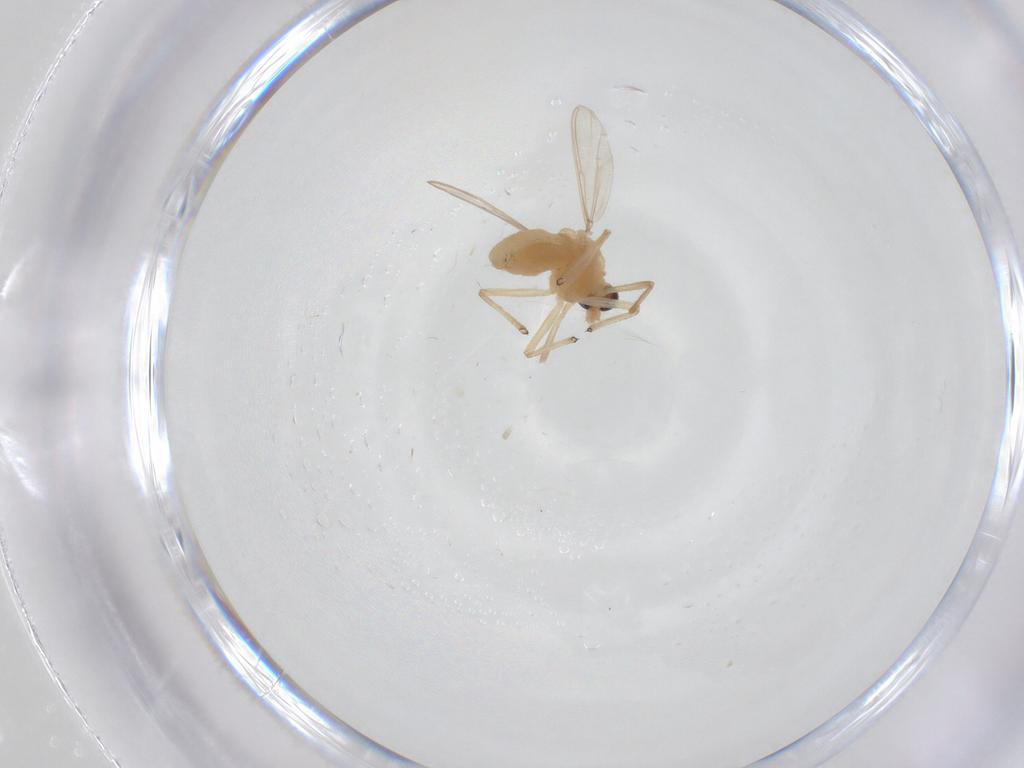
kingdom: Animalia
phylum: Arthropoda
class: Insecta
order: Diptera
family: Chironomidae
